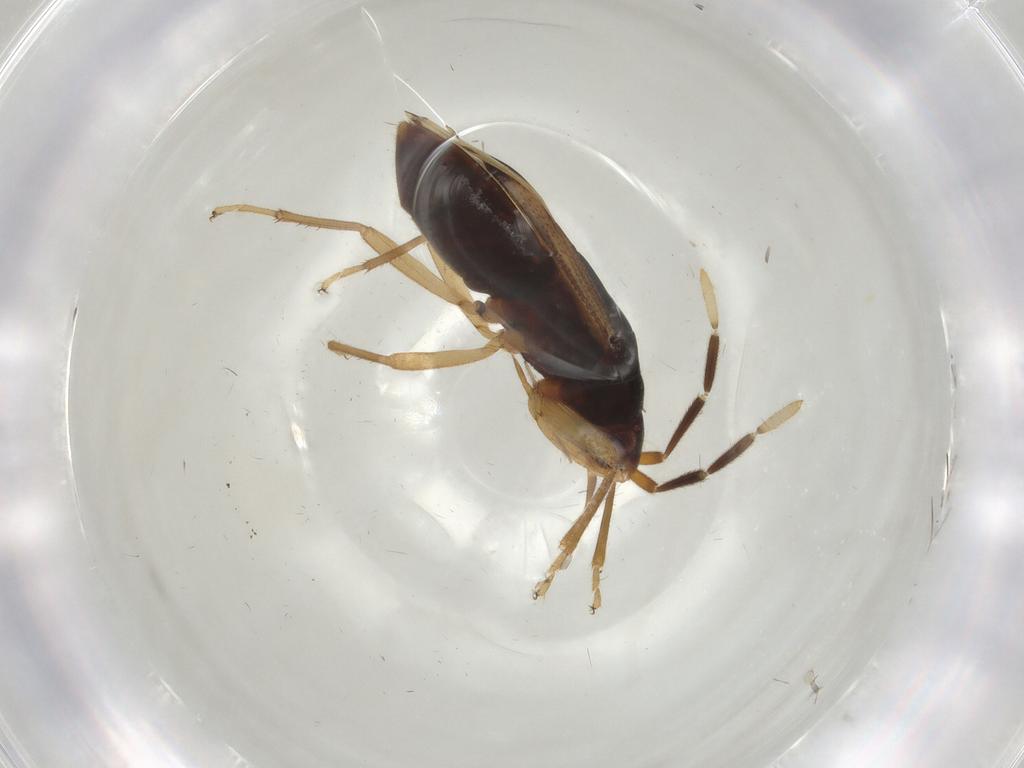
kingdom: Animalia
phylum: Arthropoda
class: Insecta
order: Hemiptera
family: Rhyparochromidae
